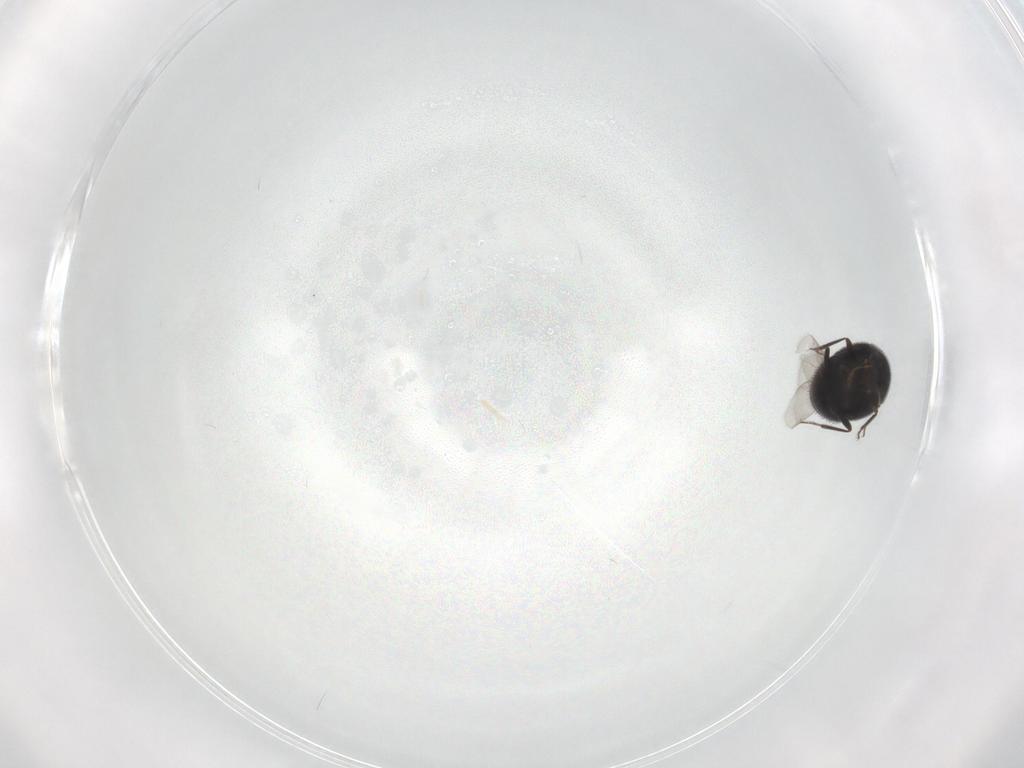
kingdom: Animalia
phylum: Arthropoda
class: Insecta
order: Coleoptera
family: Staphylinidae
